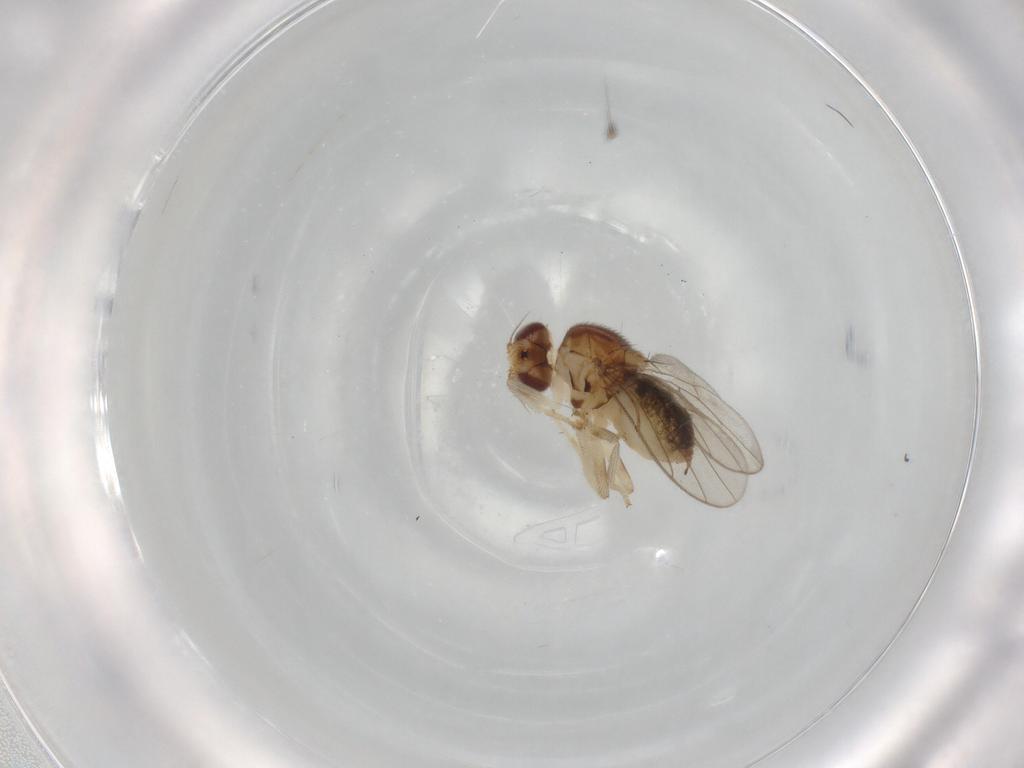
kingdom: Animalia
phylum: Arthropoda
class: Insecta
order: Diptera
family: Chloropidae
